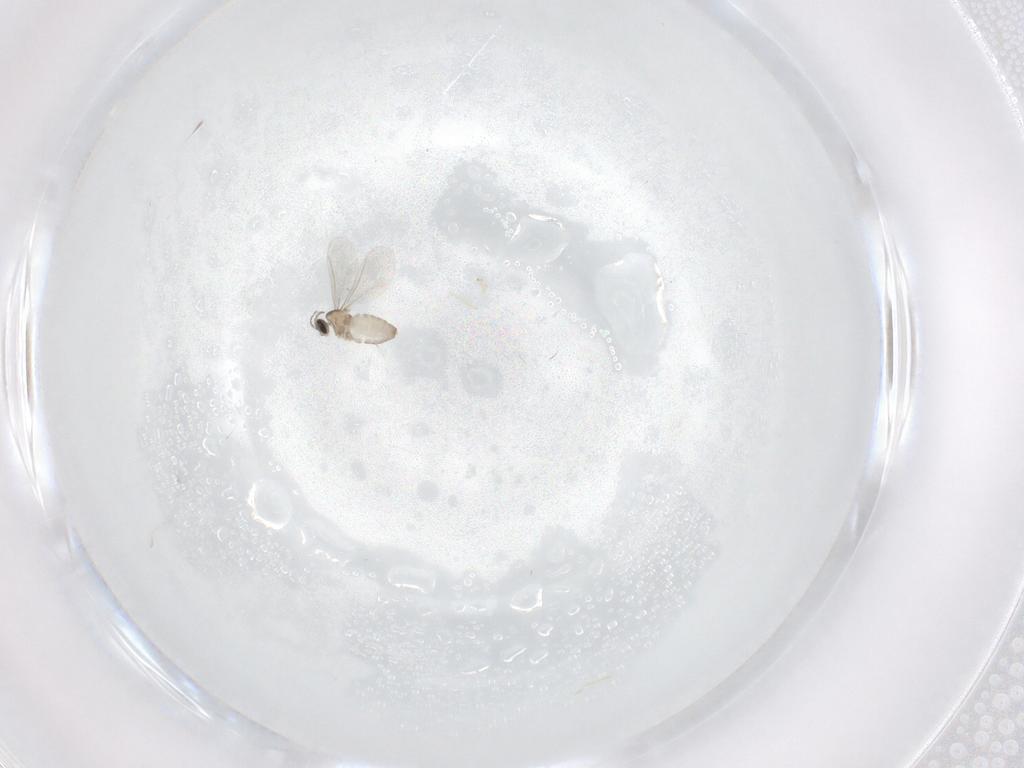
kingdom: Animalia
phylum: Arthropoda
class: Insecta
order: Diptera
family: Cecidomyiidae
